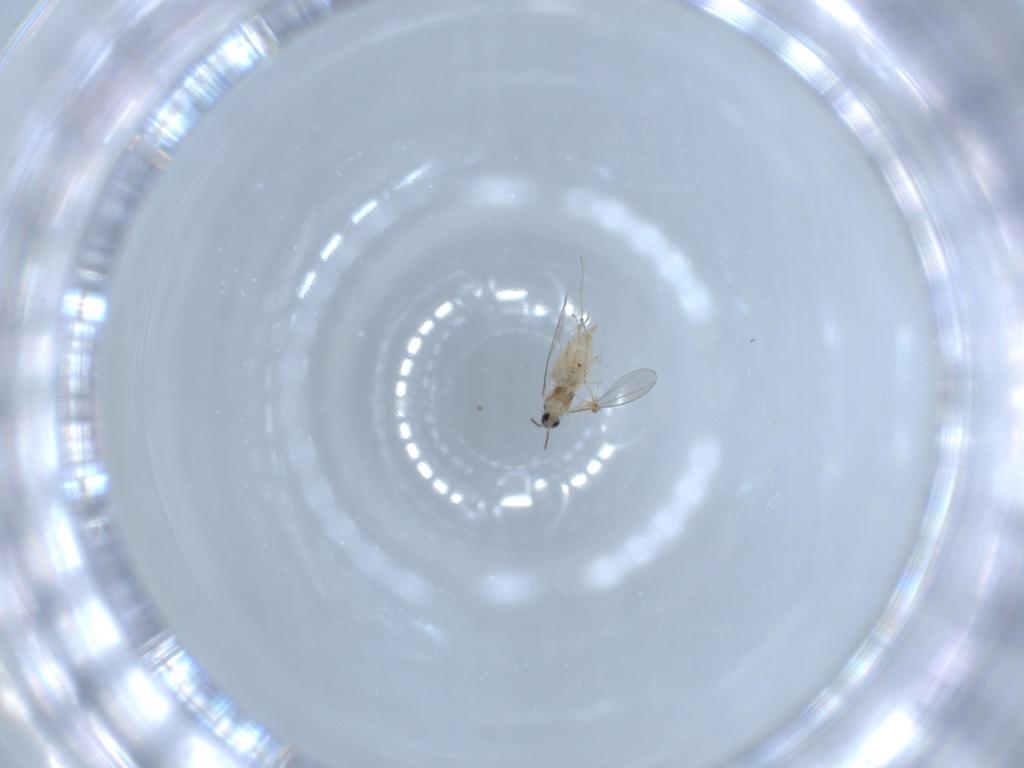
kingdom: Animalia
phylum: Arthropoda
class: Insecta
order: Diptera
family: Cecidomyiidae
